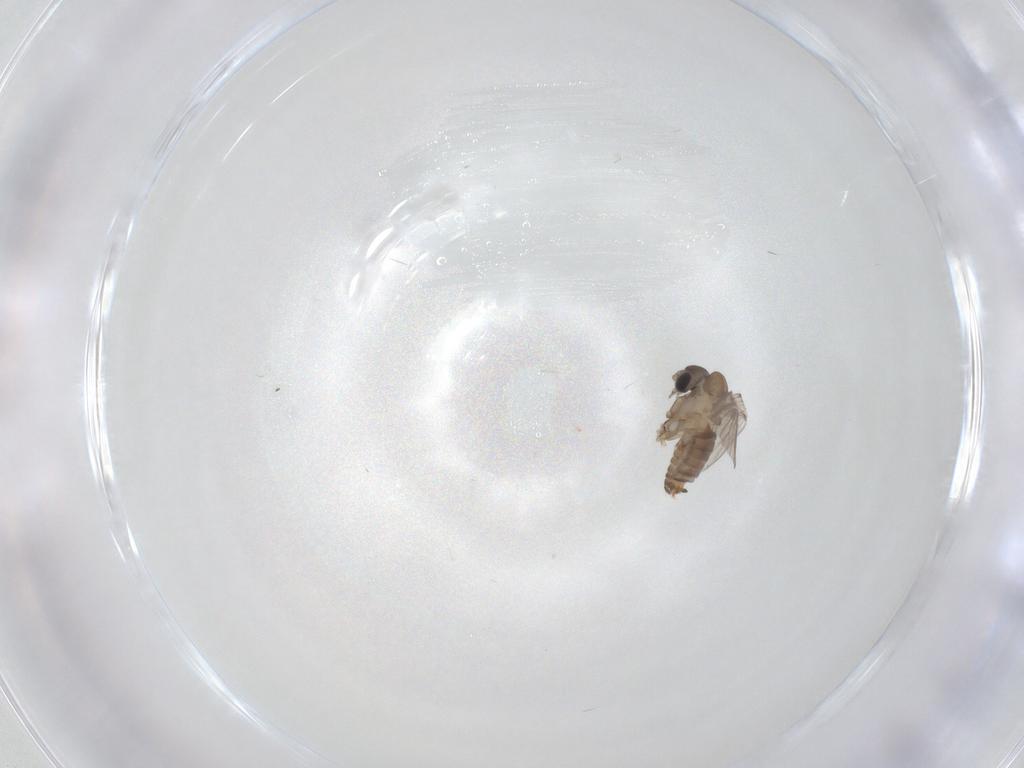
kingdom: Animalia
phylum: Arthropoda
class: Insecta
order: Diptera
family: Psychodidae
